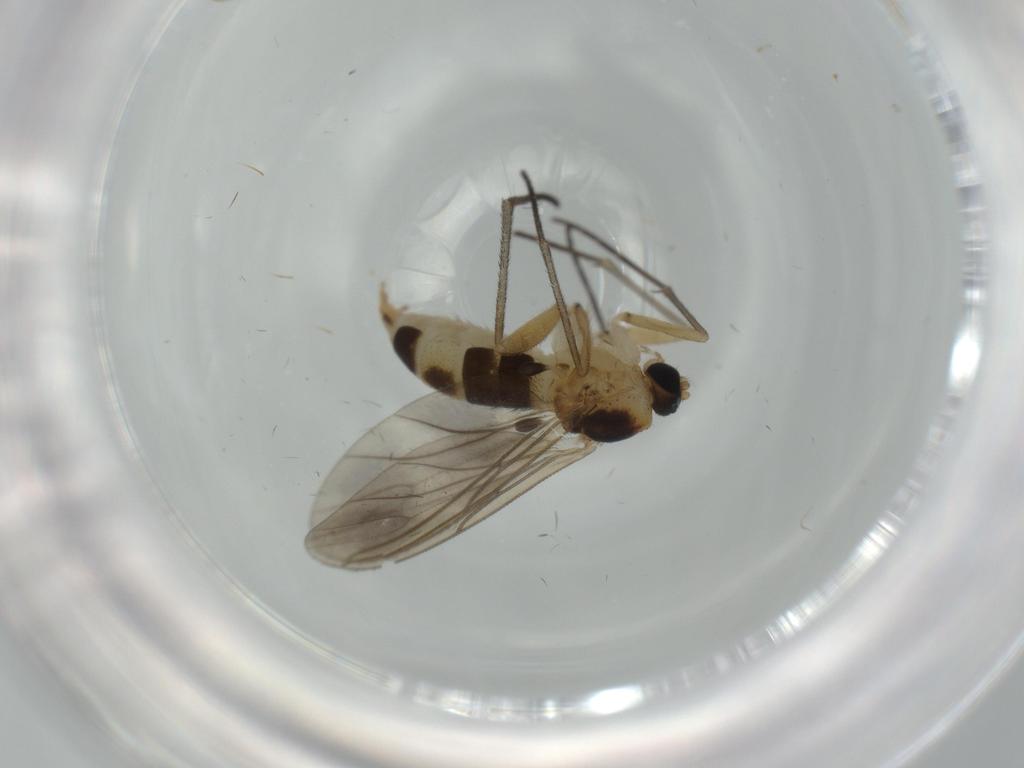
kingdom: Animalia
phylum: Arthropoda
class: Insecta
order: Diptera
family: Sciaridae
